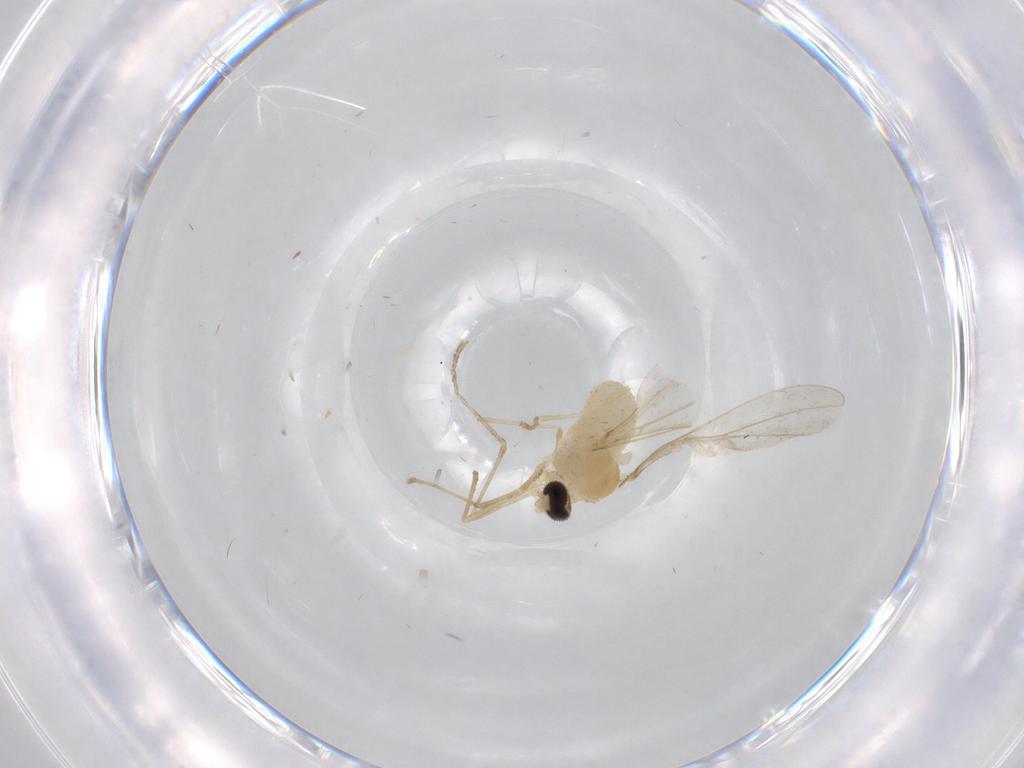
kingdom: Animalia
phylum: Arthropoda
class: Insecta
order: Diptera
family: Cecidomyiidae
